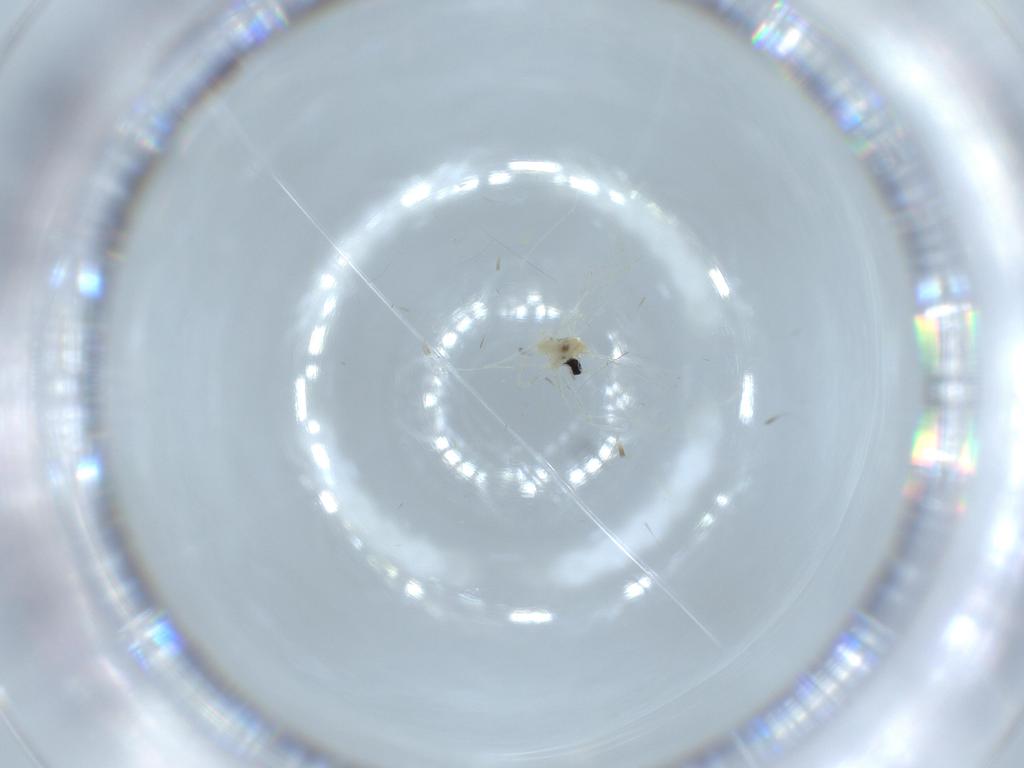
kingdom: Animalia
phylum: Arthropoda
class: Insecta
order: Diptera
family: Cecidomyiidae
